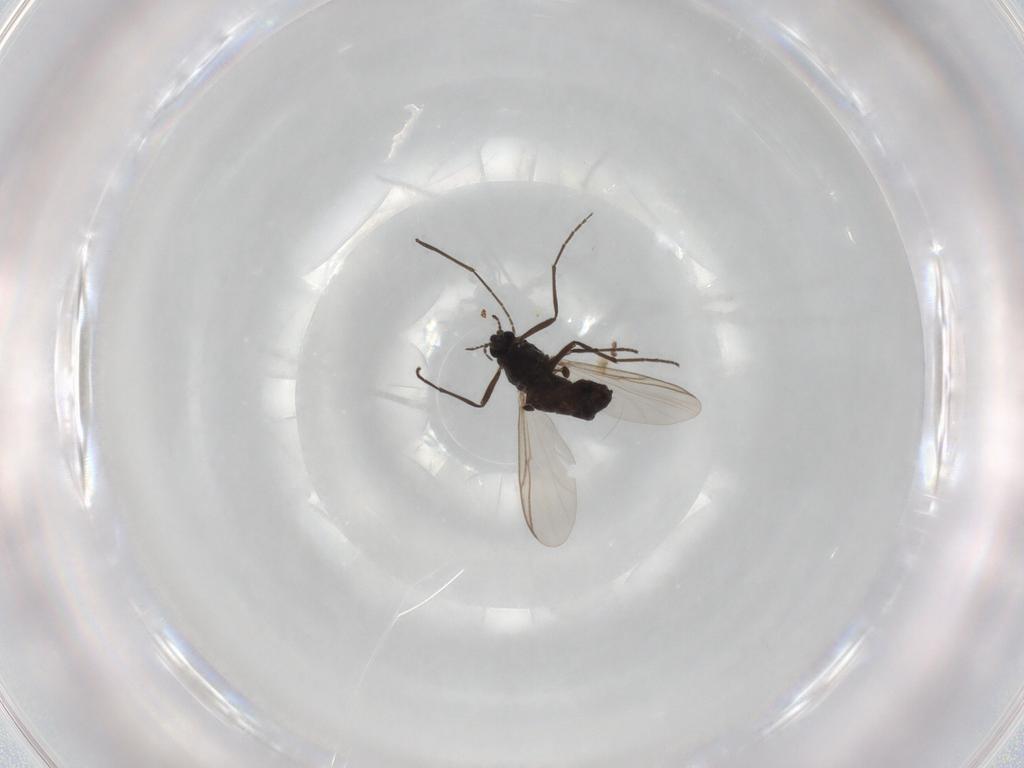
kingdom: Animalia
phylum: Arthropoda
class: Insecta
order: Diptera
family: Chironomidae
